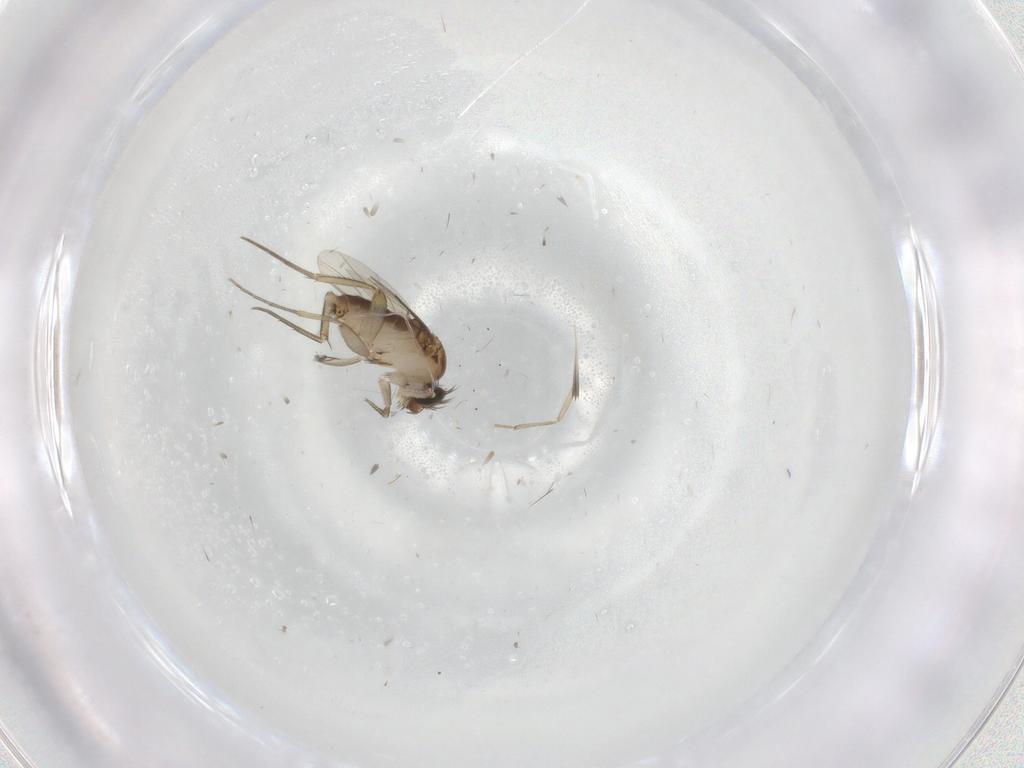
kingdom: Animalia
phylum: Arthropoda
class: Insecta
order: Diptera
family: Phoridae
